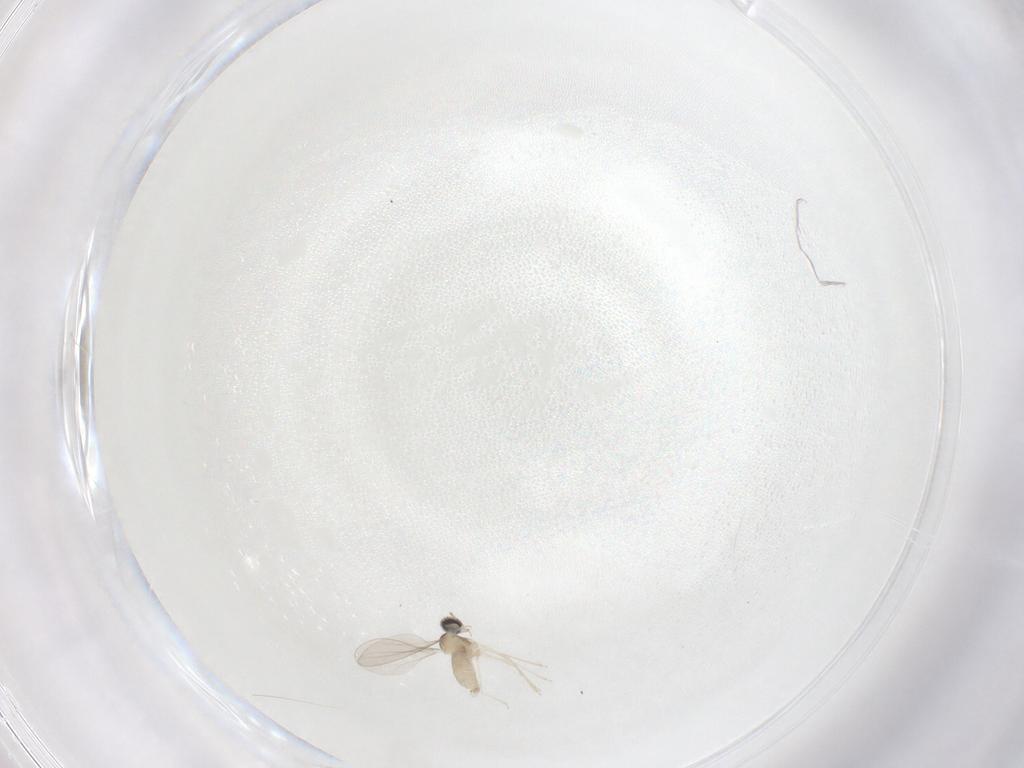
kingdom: Animalia
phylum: Arthropoda
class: Insecta
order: Diptera
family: Cecidomyiidae
